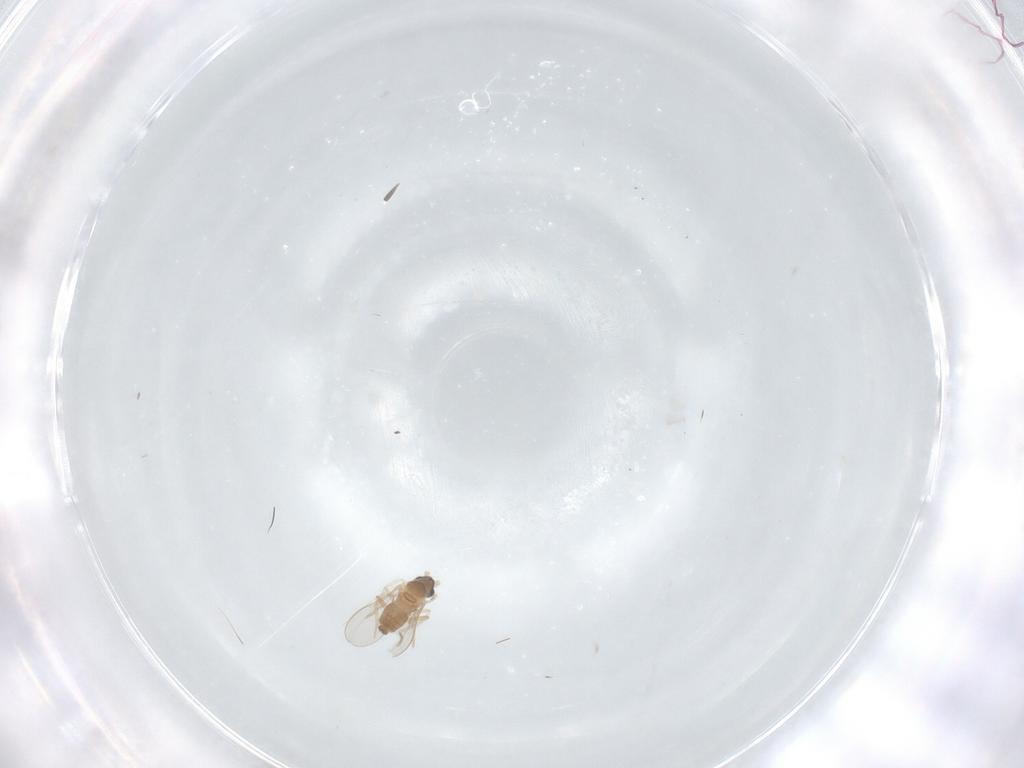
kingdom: Animalia
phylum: Arthropoda
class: Insecta
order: Diptera
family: Cecidomyiidae
